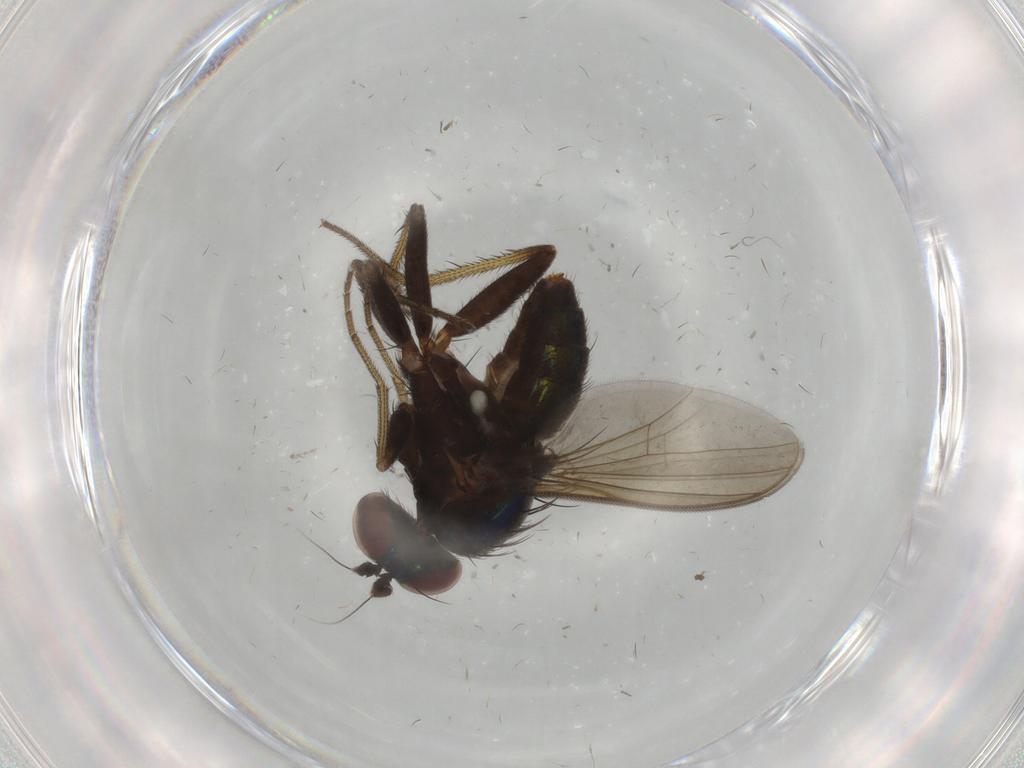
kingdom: Animalia
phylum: Arthropoda
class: Insecta
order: Diptera
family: Dolichopodidae
